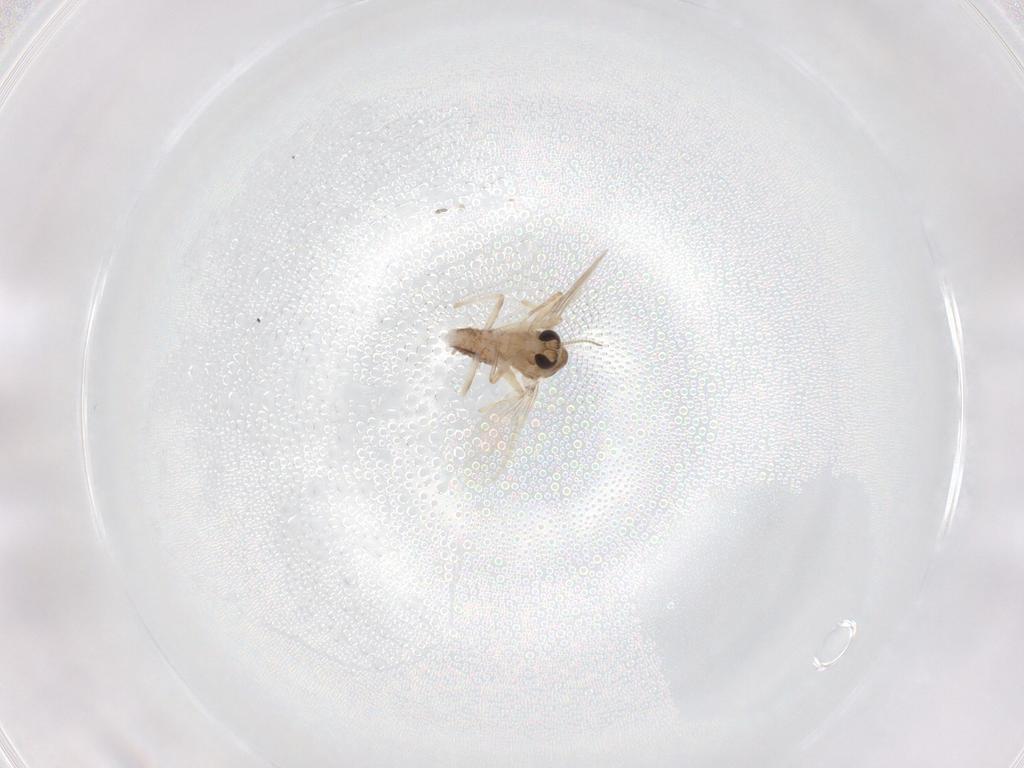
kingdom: Animalia
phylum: Arthropoda
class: Insecta
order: Diptera
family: Chironomidae
